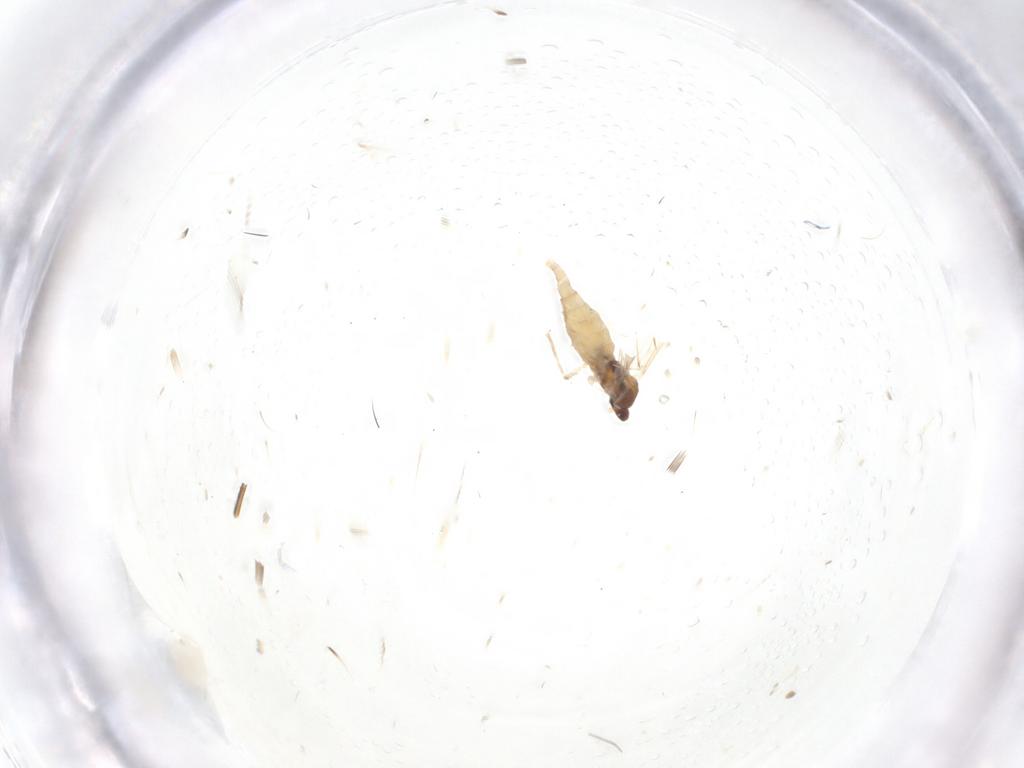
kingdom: Animalia
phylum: Arthropoda
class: Insecta
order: Diptera
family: Cecidomyiidae
